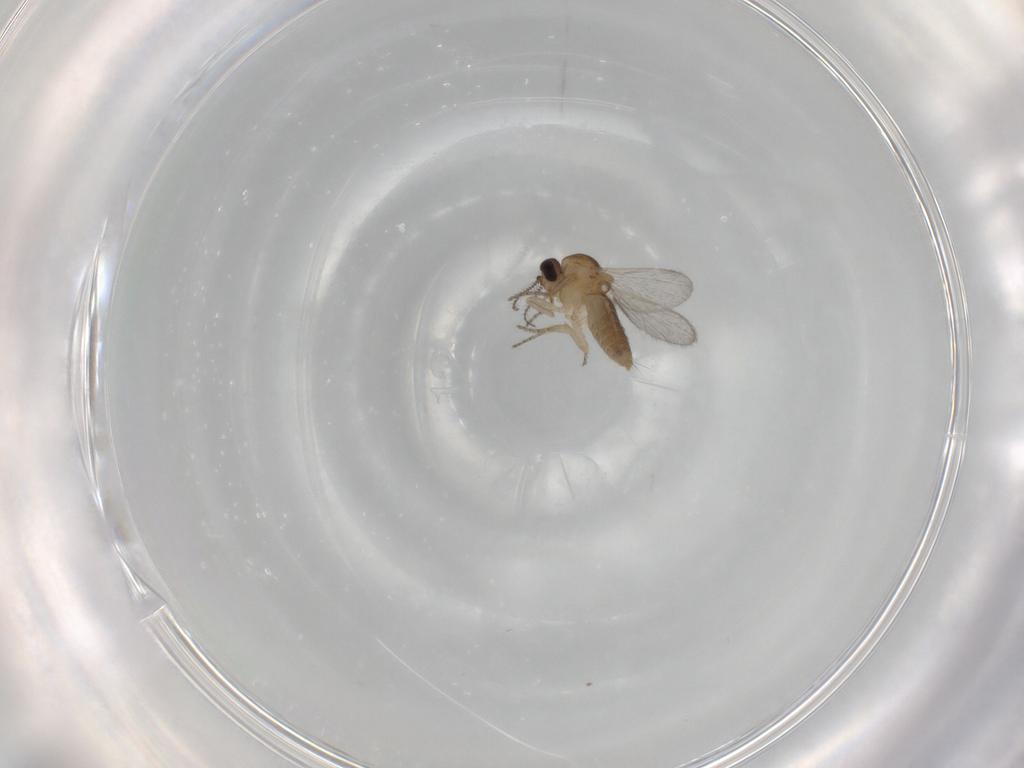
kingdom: Animalia
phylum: Arthropoda
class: Insecta
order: Diptera
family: Ceratopogonidae
